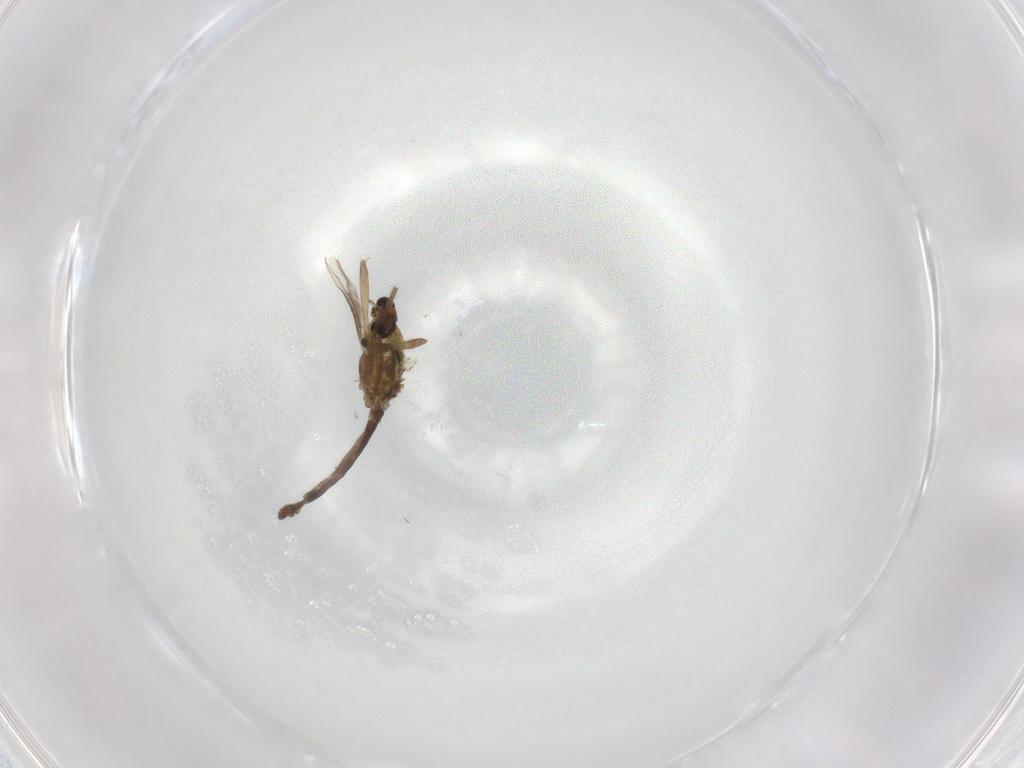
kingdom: Animalia
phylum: Arthropoda
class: Insecta
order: Diptera
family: Chironomidae
